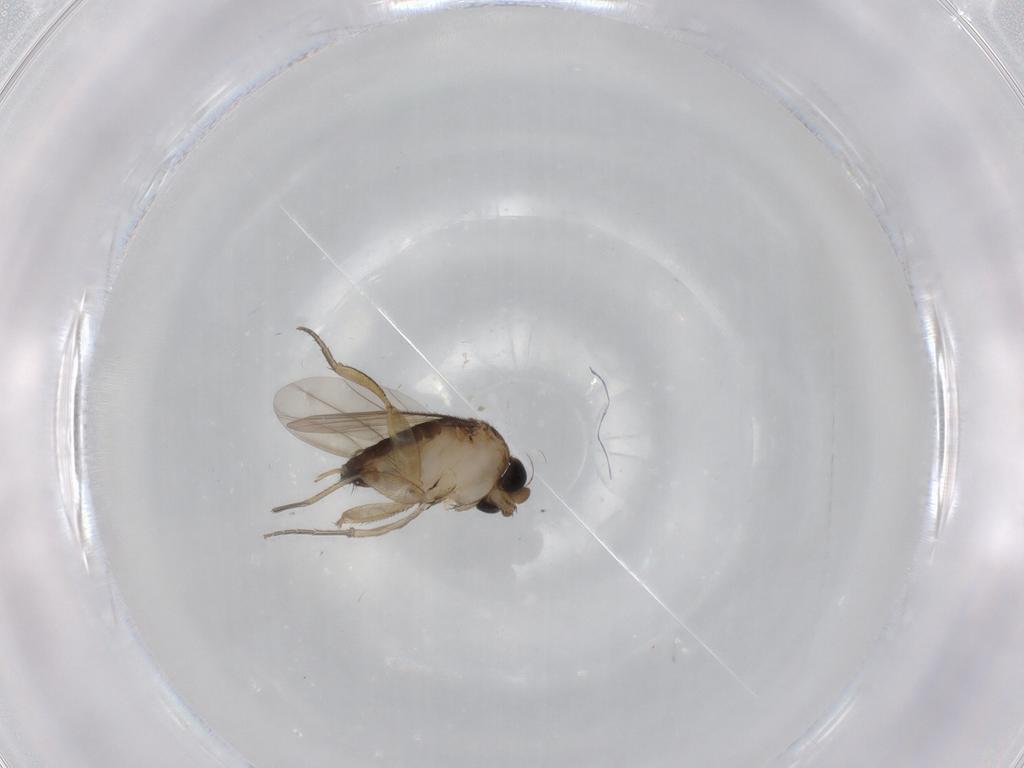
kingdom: Animalia
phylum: Arthropoda
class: Insecta
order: Diptera
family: Phoridae
